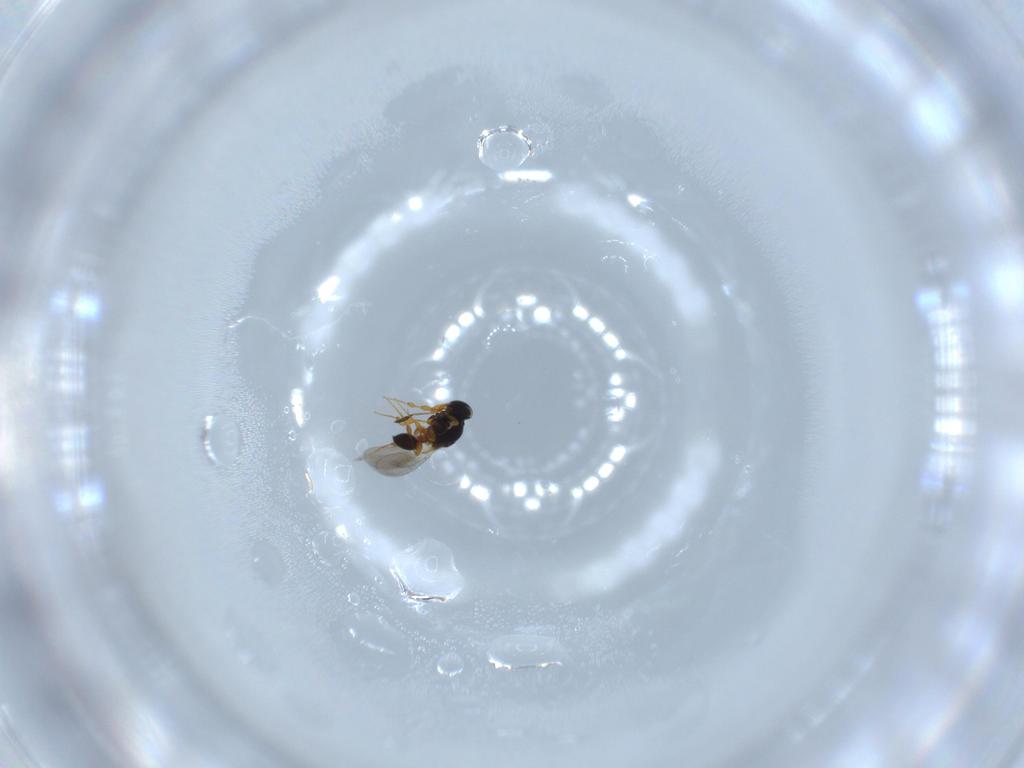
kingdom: Animalia
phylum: Arthropoda
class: Insecta
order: Hymenoptera
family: Platygastridae
